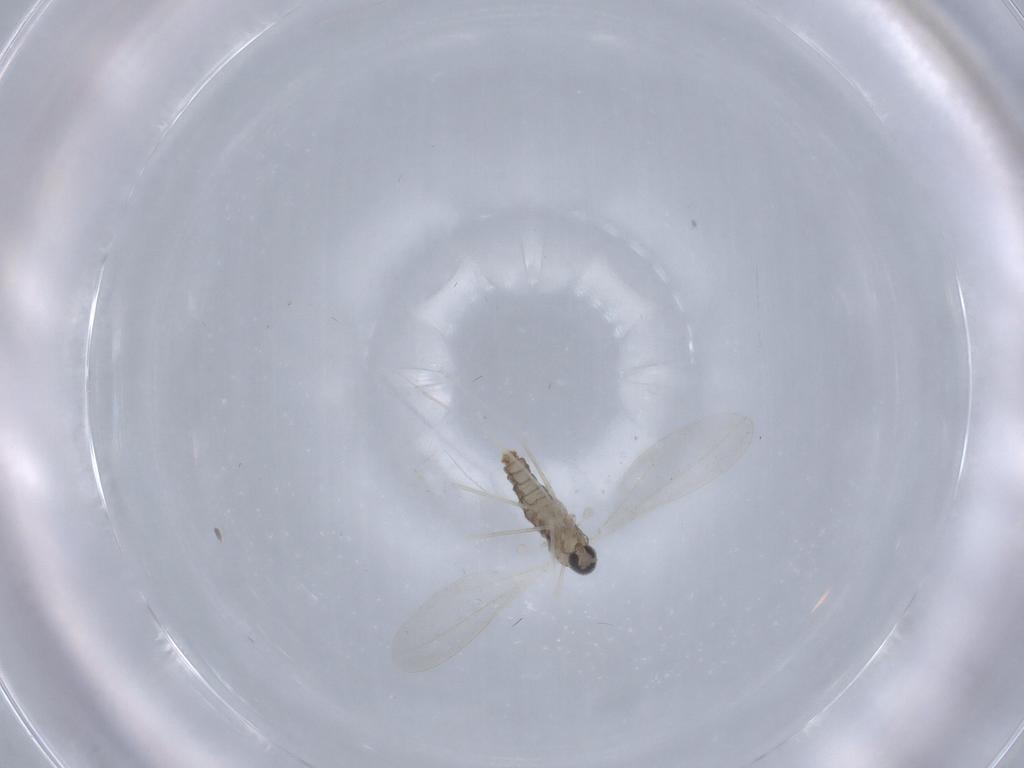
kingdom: Animalia
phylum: Arthropoda
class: Insecta
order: Diptera
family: Cecidomyiidae
